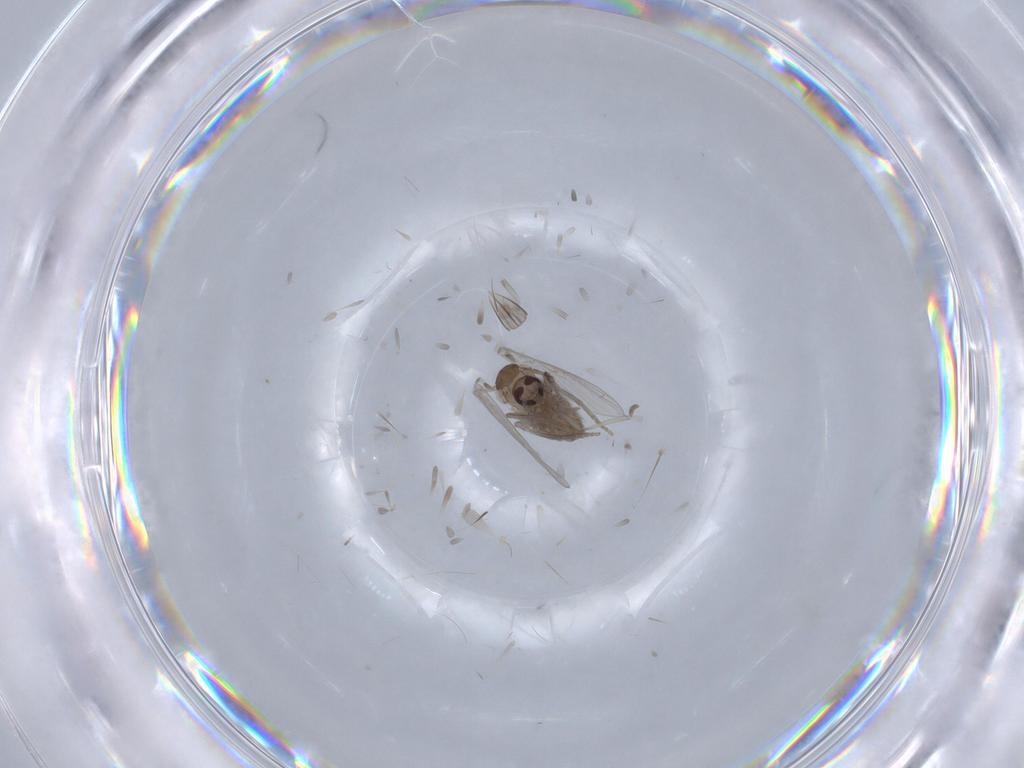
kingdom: Animalia
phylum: Arthropoda
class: Insecta
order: Diptera
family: Psychodidae
